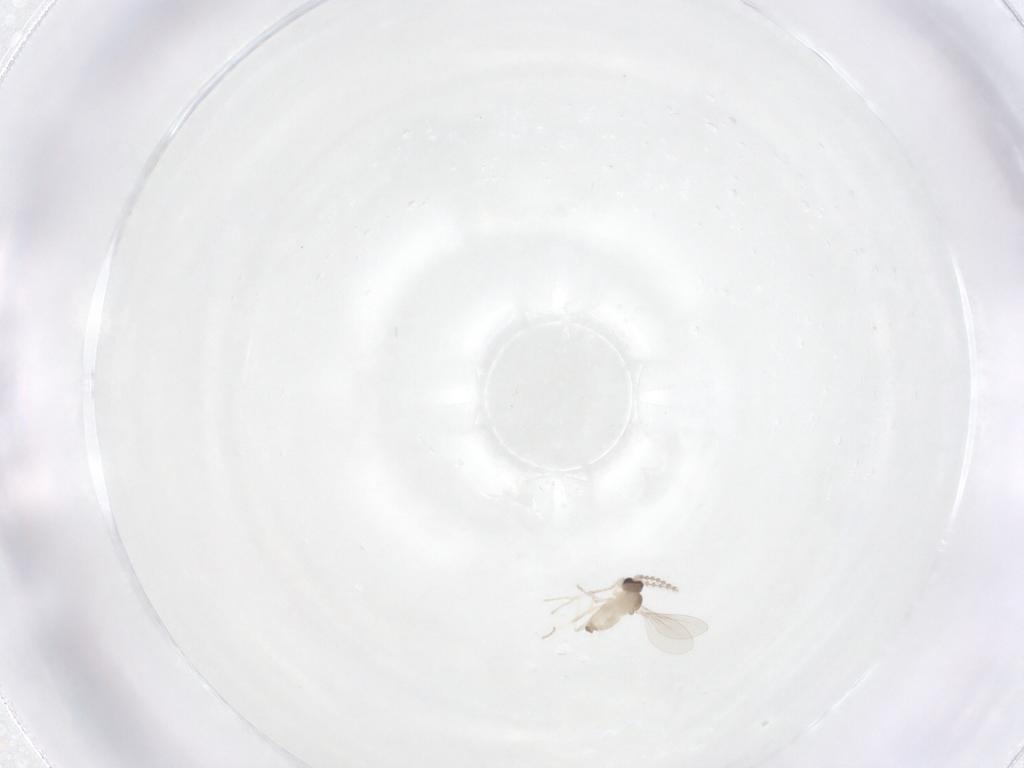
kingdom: Animalia
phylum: Arthropoda
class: Insecta
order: Diptera
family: Cecidomyiidae
